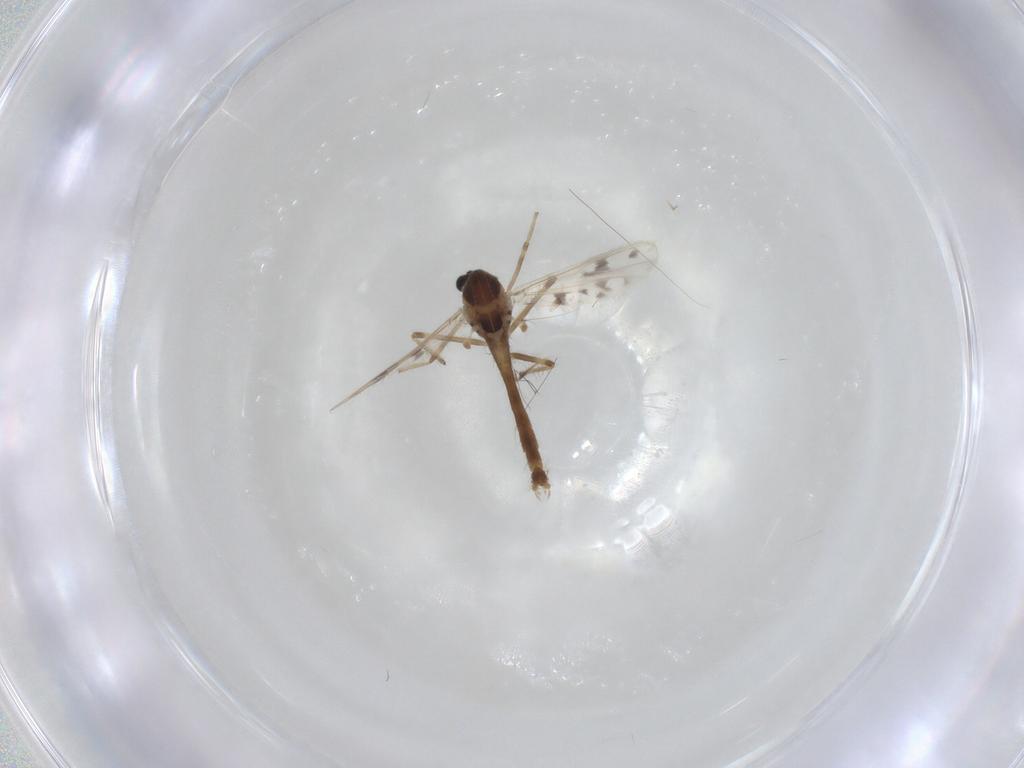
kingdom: Animalia
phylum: Arthropoda
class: Insecta
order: Diptera
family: Chironomidae
